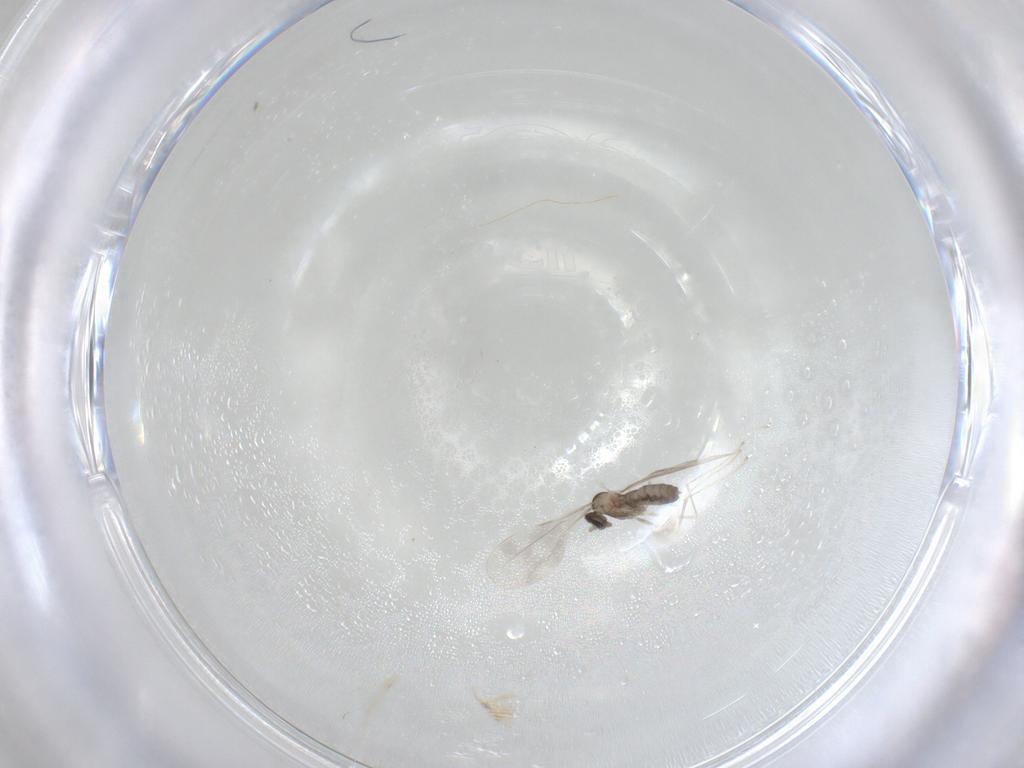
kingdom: Animalia
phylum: Arthropoda
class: Insecta
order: Diptera
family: Cecidomyiidae
